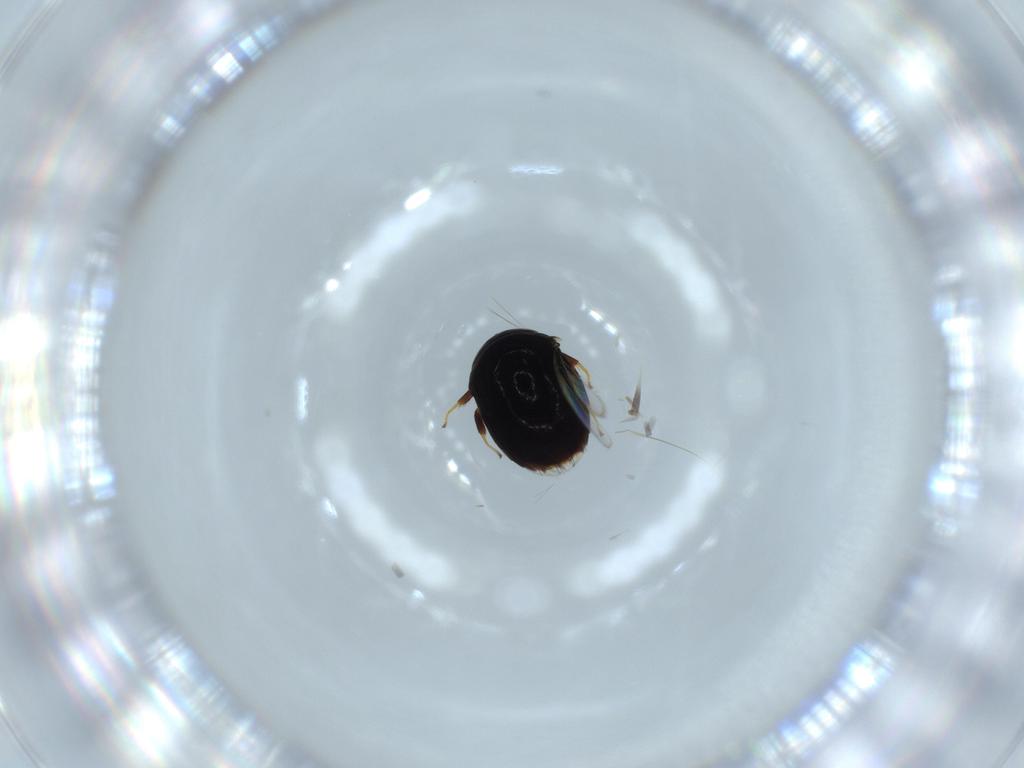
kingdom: Animalia
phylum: Arthropoda
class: Insecta
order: Coleoptera
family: Chrysomelidae
